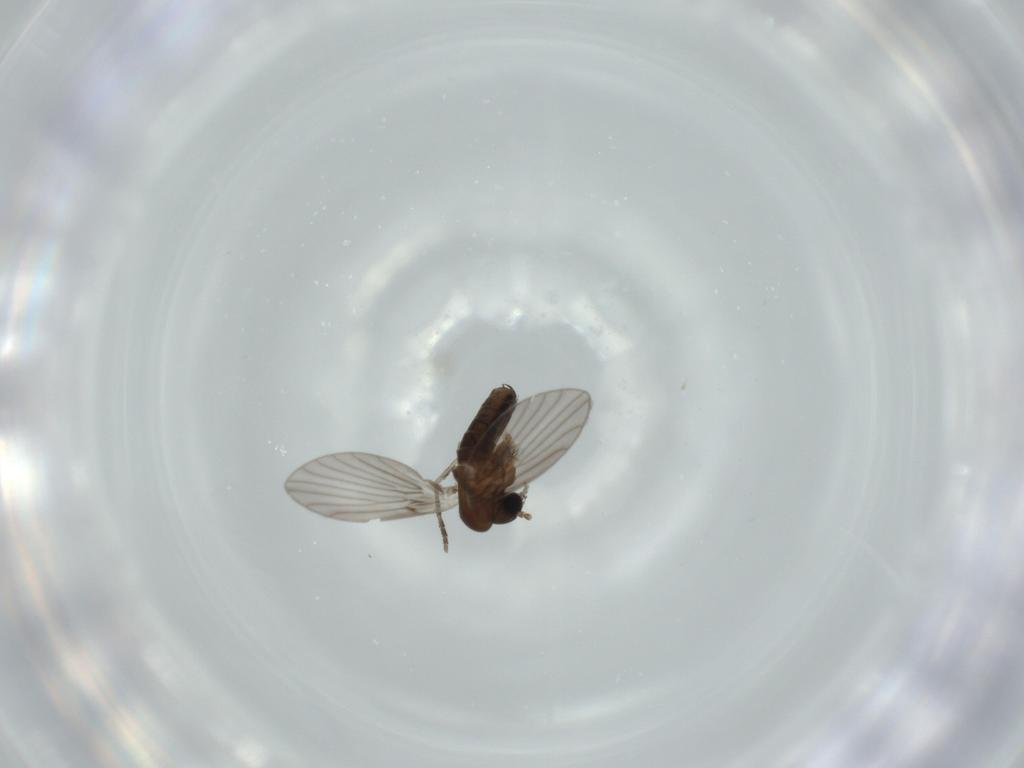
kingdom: Animalia
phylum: Arthropoda
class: Insecta
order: Diptera
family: Psychodidae
